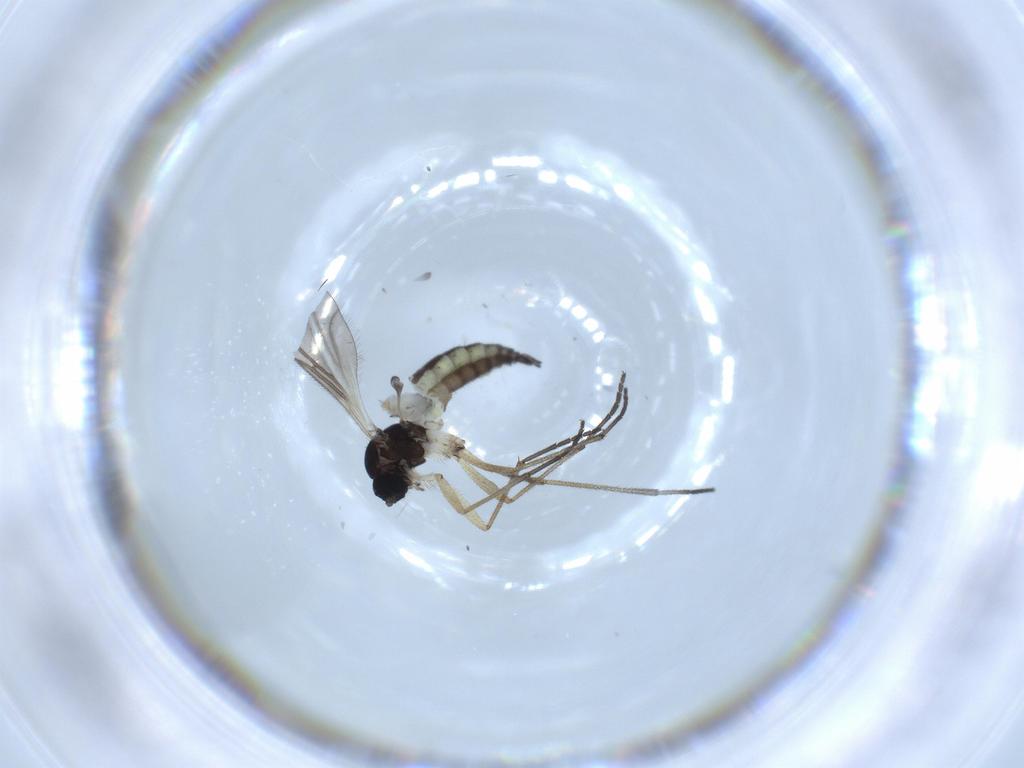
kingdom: Animalia
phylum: Arthropoda
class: Insecta
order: Diptera
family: Sciaridae
